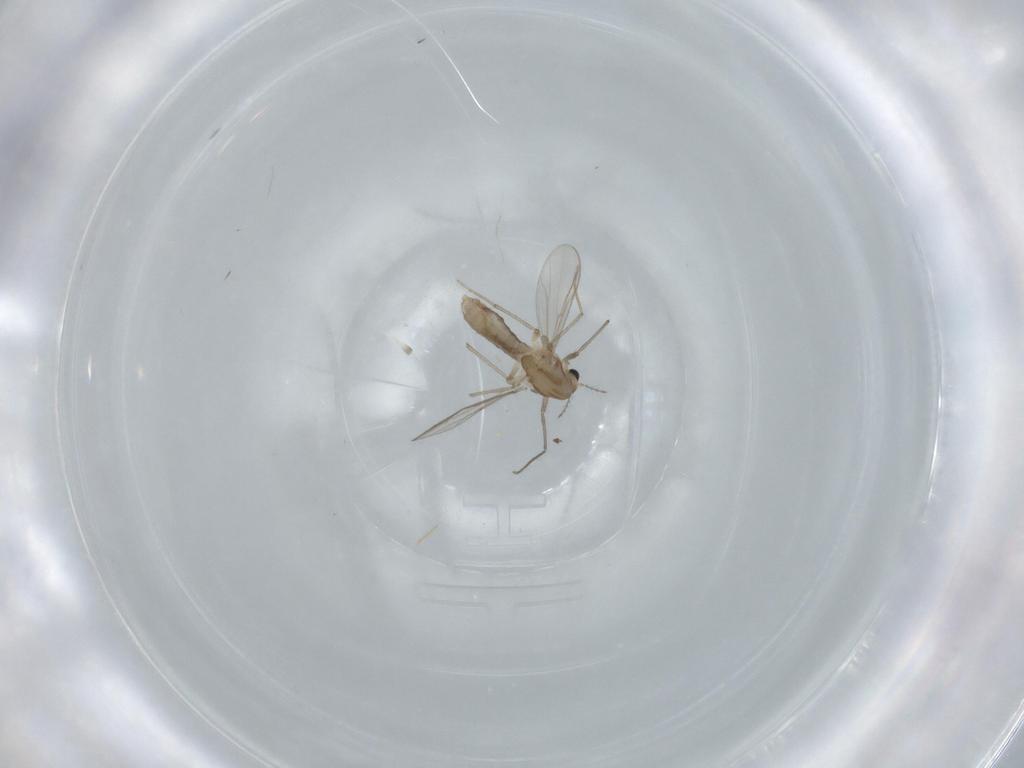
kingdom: Animalia
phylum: Arthropoda
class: Insecta
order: Diptera
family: Chironomidae
